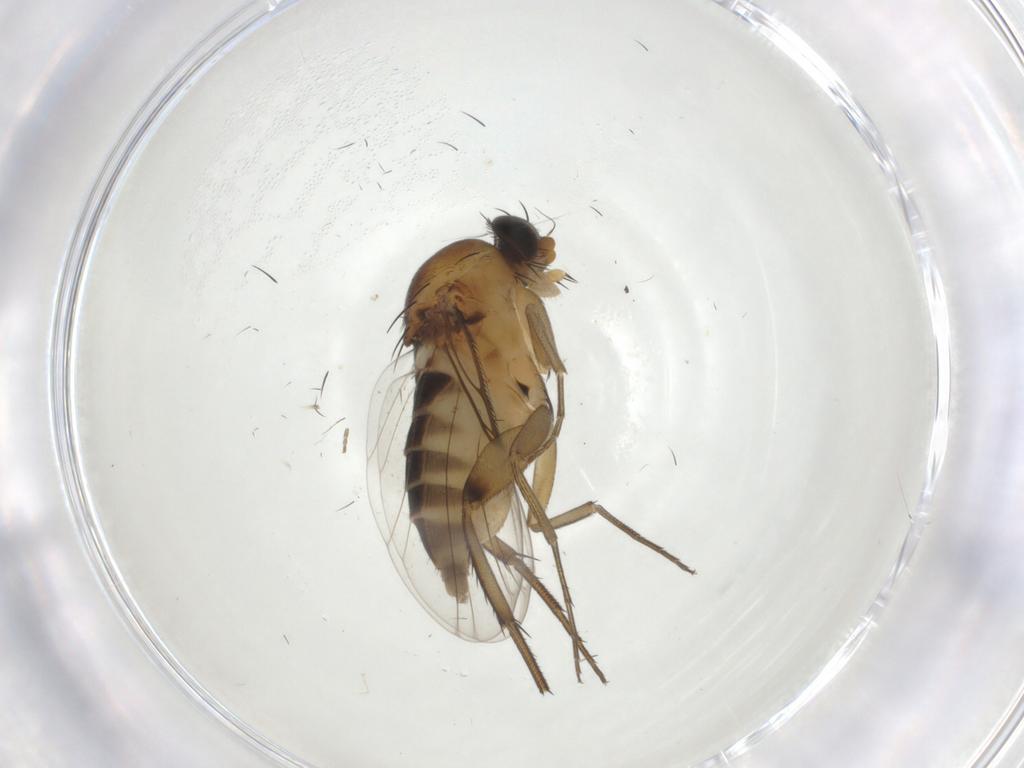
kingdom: Animalia
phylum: Arthropoda
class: Insecta
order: Diptera
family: Phoridae
